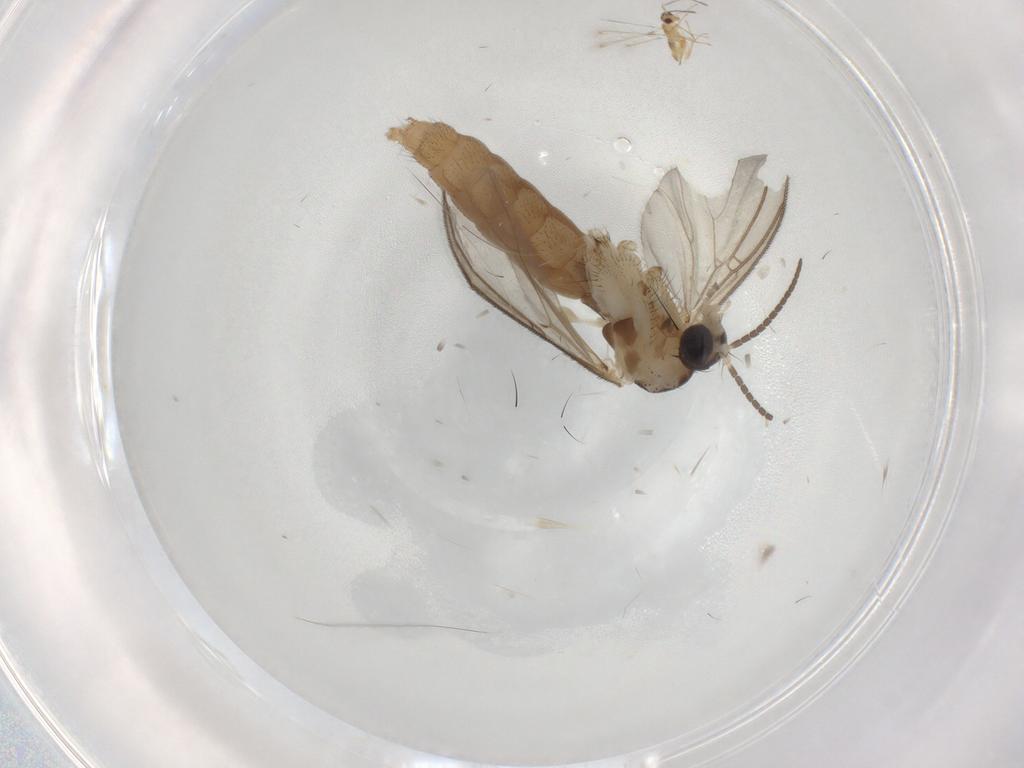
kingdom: Animalia
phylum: Arthropoda
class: Insecta
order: Diptera
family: Mycetophilidae
